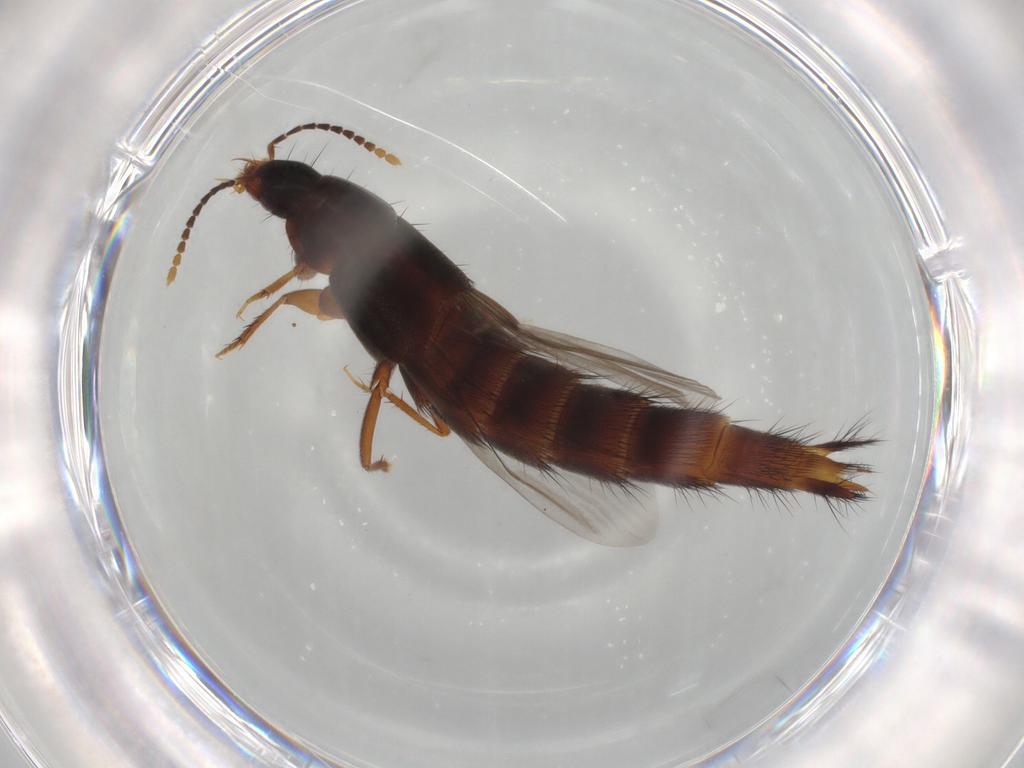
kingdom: Animalia
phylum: Arthropoda
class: Insecta
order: Coleoptera
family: Staphylinidae
